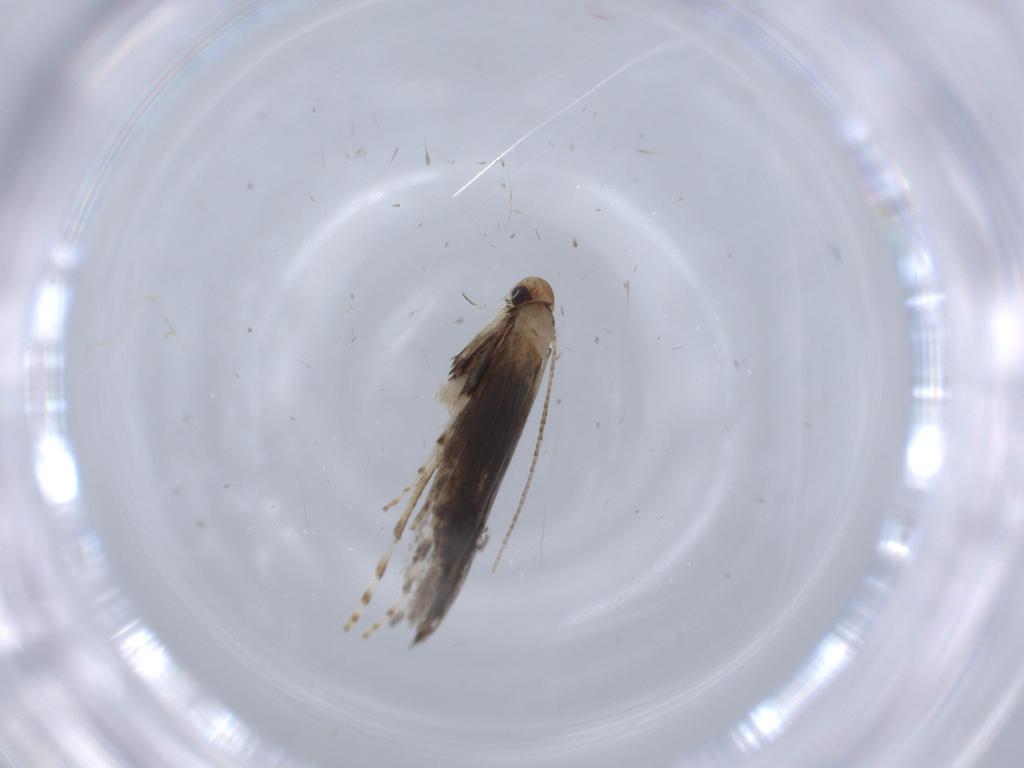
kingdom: Animalia
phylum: Arthropoda
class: Insecta
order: Lepidoptera
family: Gracillariidae
